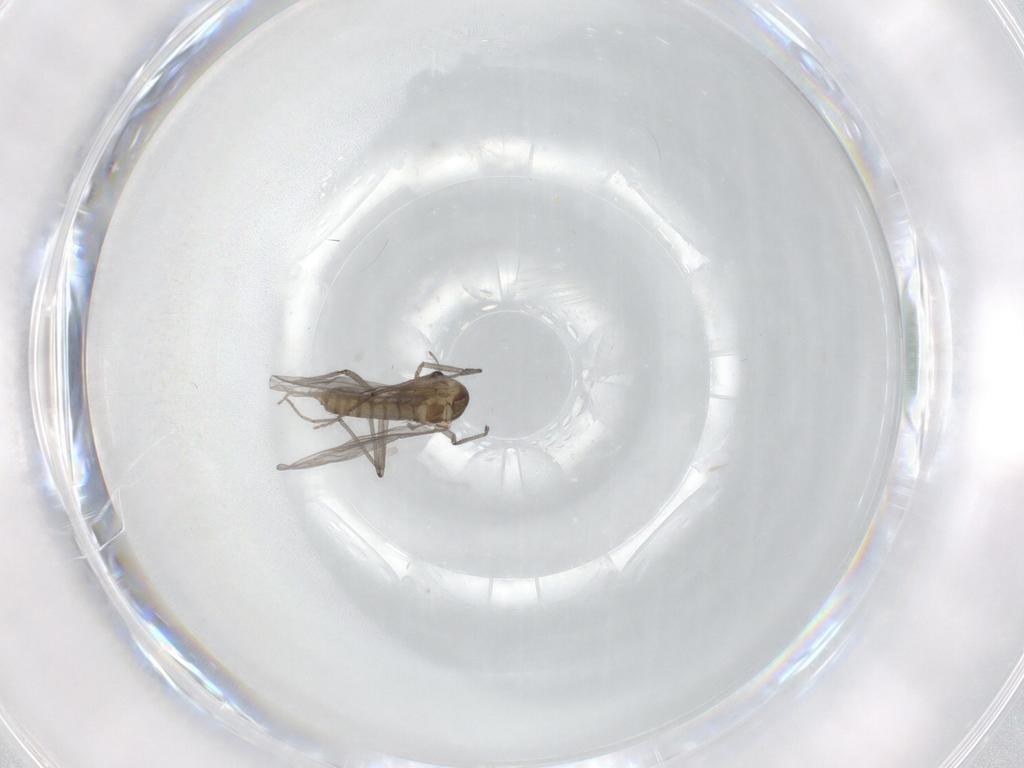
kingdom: Animalia
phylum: Arthropoda
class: Insecta
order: Diptera
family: Chironomidae
